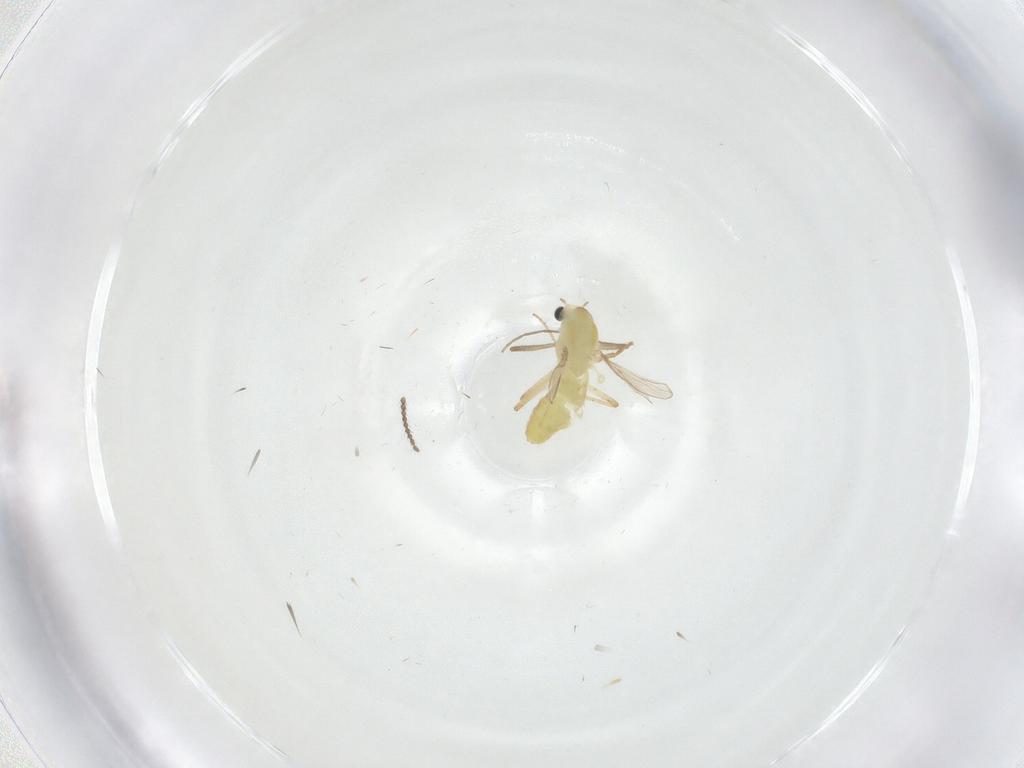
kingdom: Animalia
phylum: Arthropoda
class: Insecta
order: Diptera
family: Chironomidae
